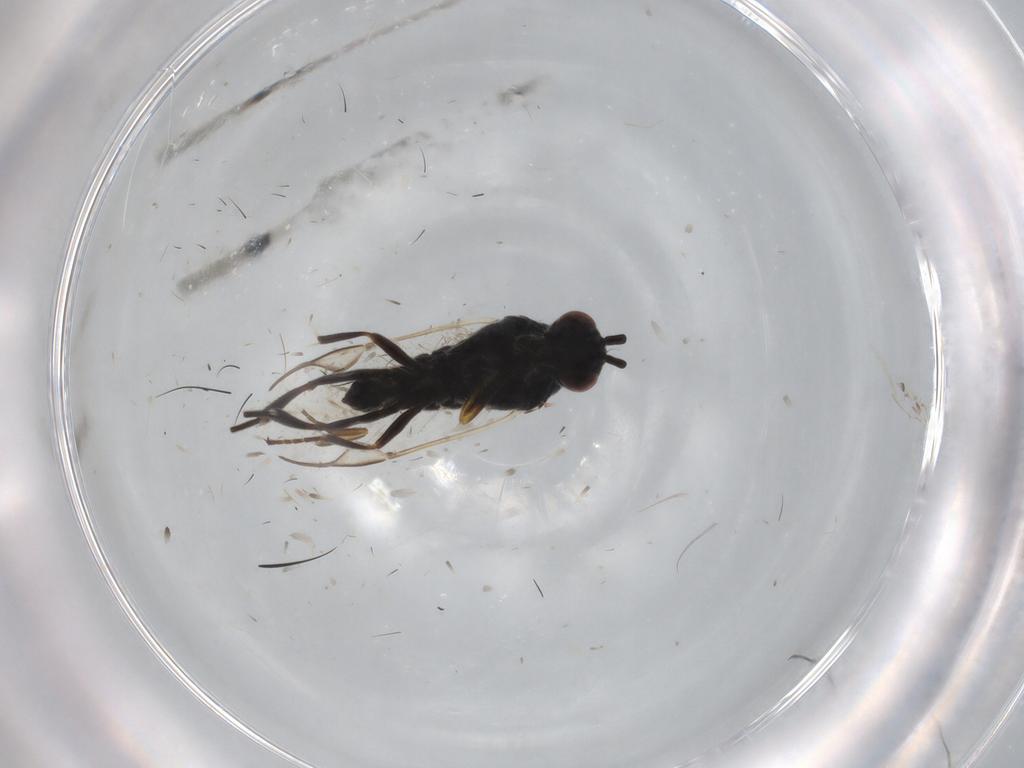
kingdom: Animalia
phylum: Arthropoda
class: Insecta
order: Hymenoptera
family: Braconidae
